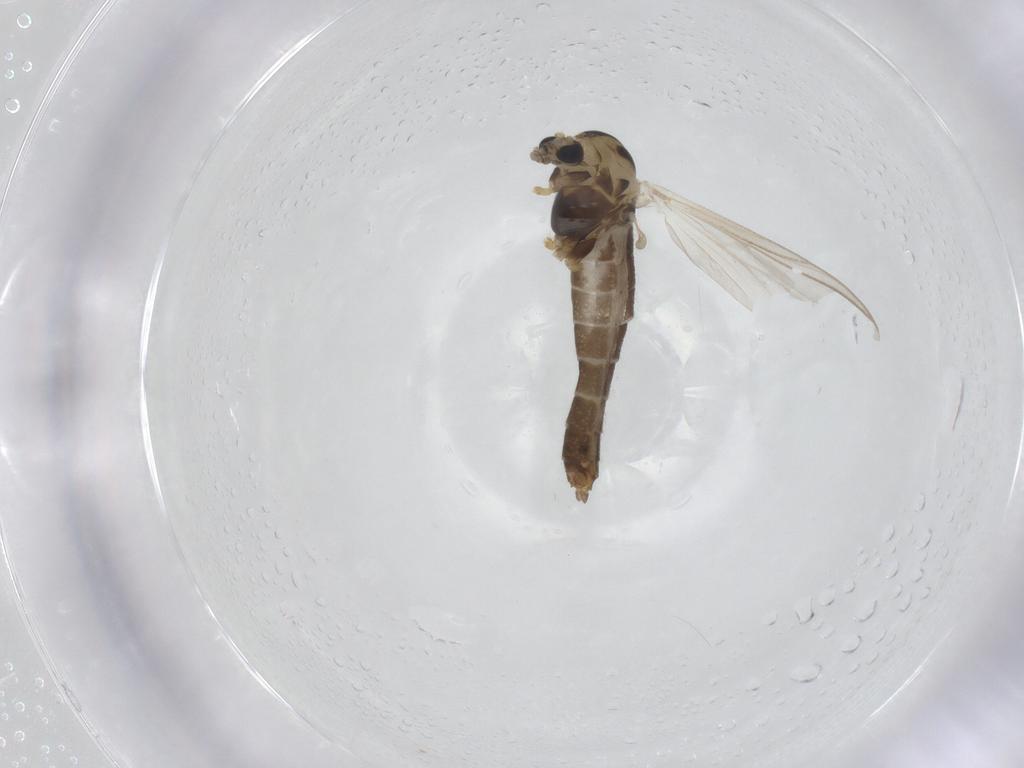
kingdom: Animalia
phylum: Arthropoda
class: Insecta
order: Diptera
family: Chironomidae
